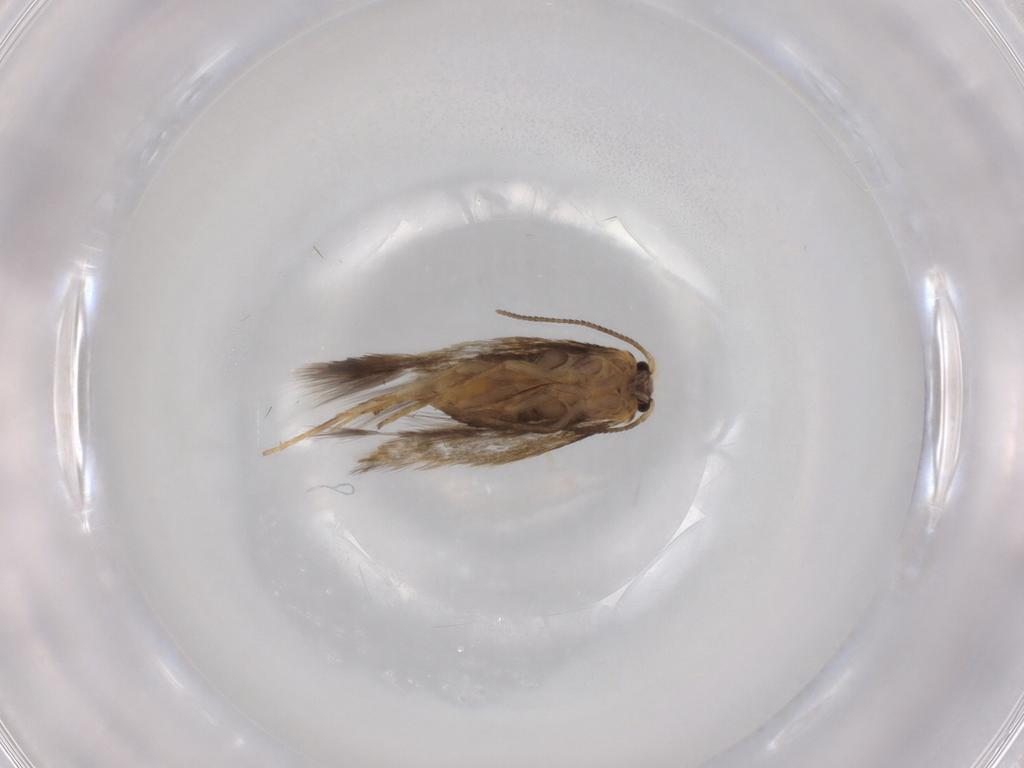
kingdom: Animalia
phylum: Arthropoda
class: Insecta
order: Lepidoptera
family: Nepticulidae
